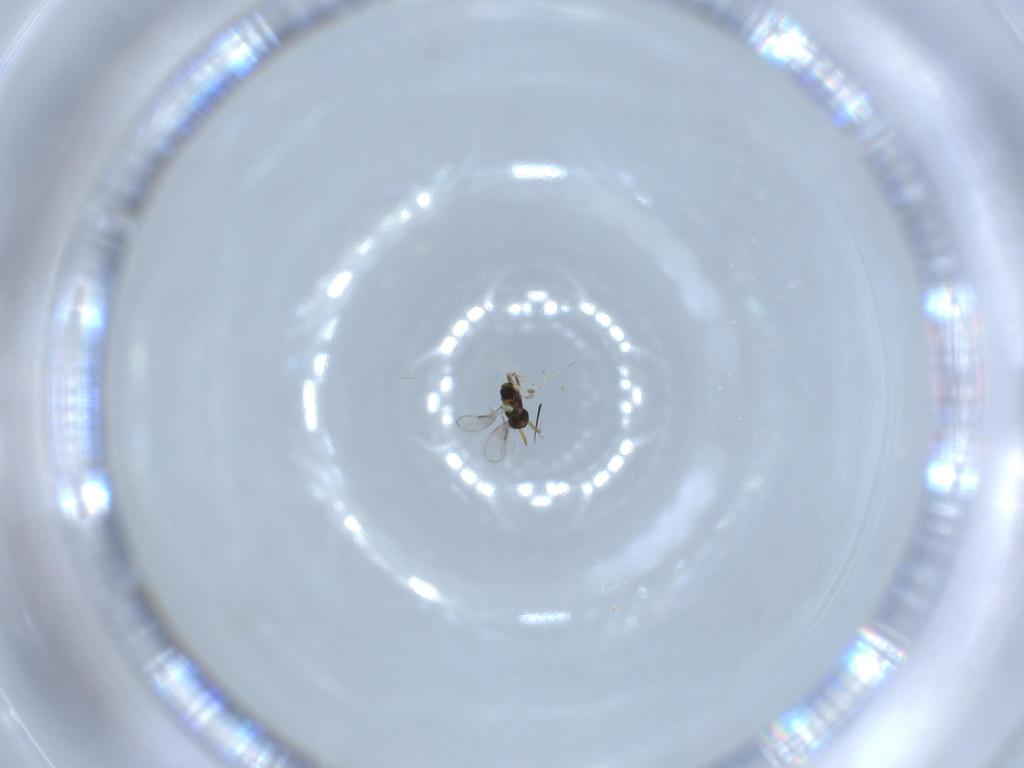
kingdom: Animalia
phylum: Arthropoda
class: Insecta
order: Hymenoptera
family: Aphelinidae
